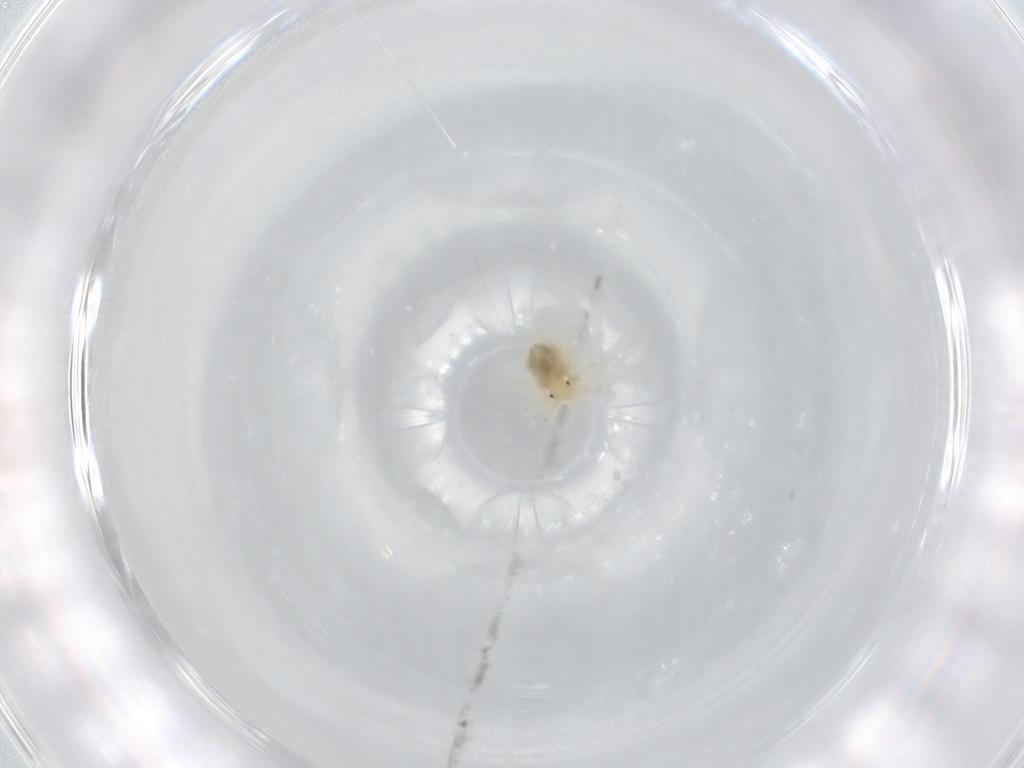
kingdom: Animalia
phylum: Arthropoda
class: Arachnida
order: Trombidiformes
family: Anystidae
